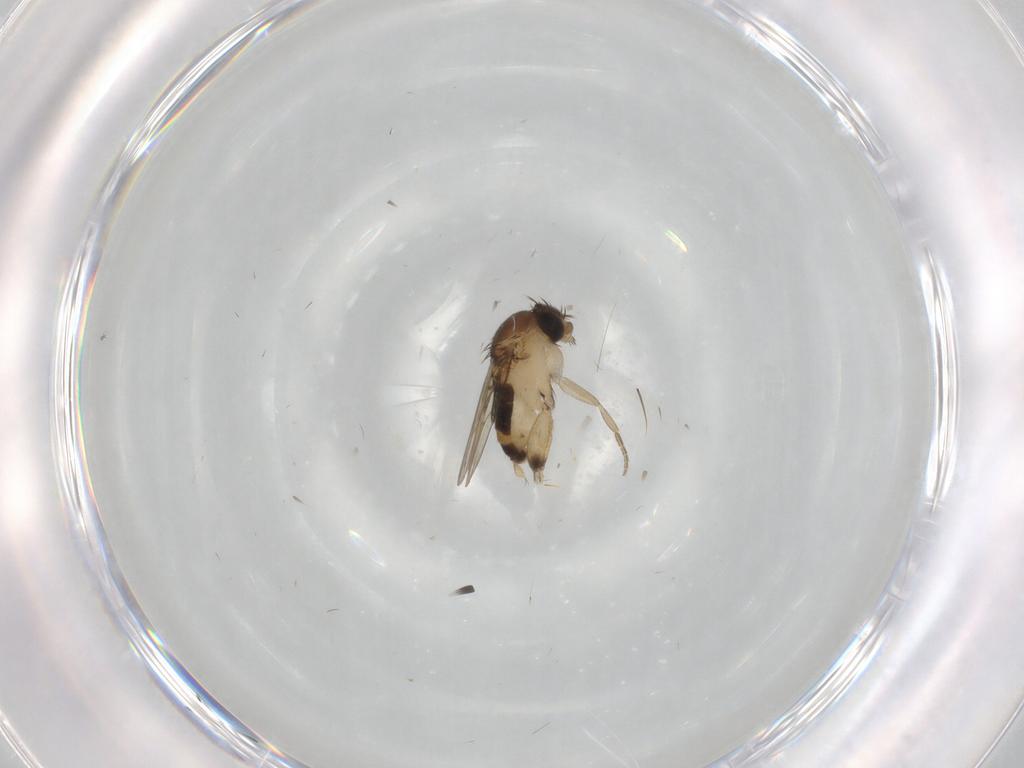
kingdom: Animalia
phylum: Arthropoda
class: Insecta
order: Diptera
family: Phoridae
